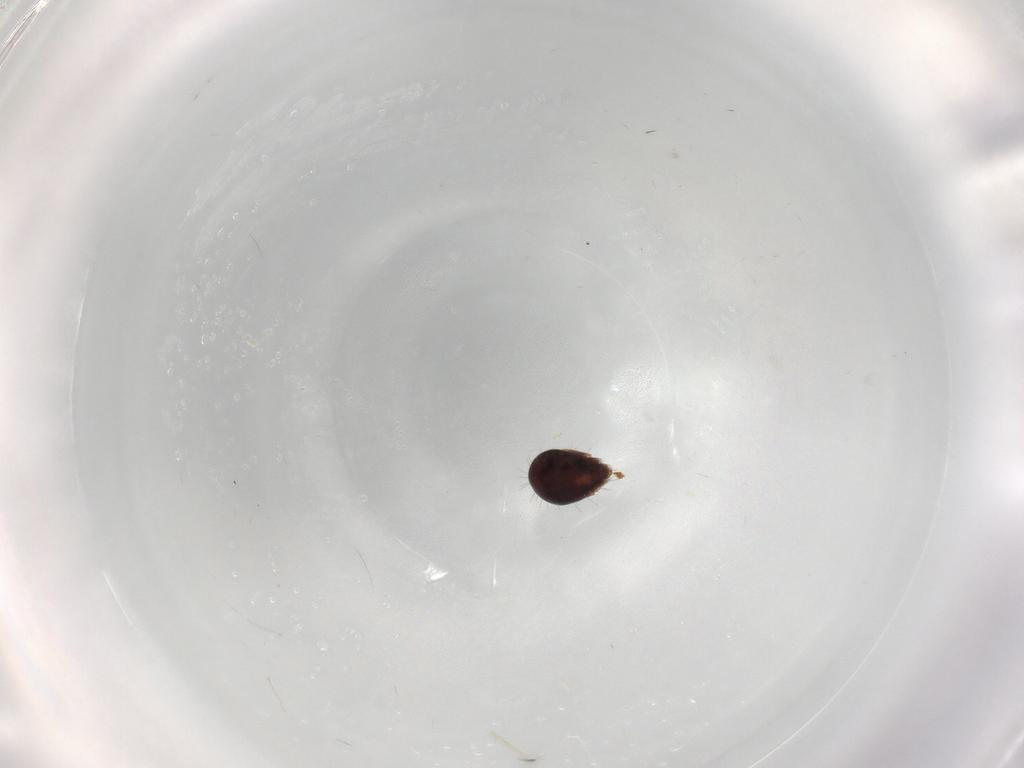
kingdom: Animalia
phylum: Arthropoda
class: Arachnida
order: Sarcoptiformes
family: Humerobatidae
